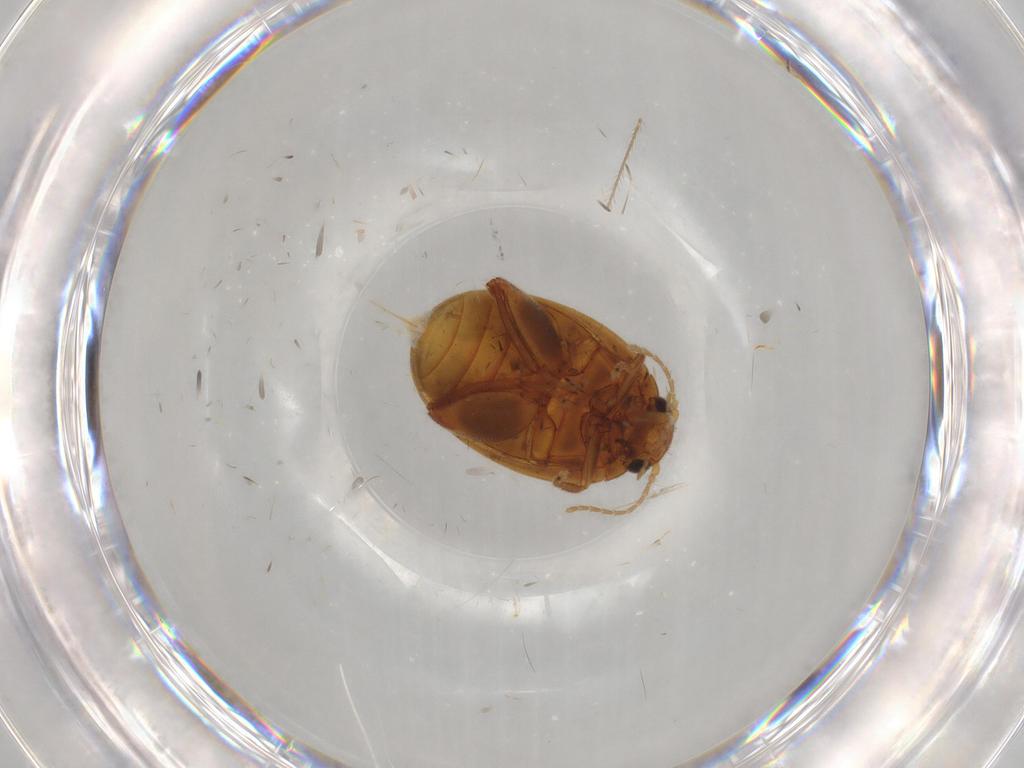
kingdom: Animalia
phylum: Arthropoda
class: Insecta
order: Coleoptera
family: Scirtidae
